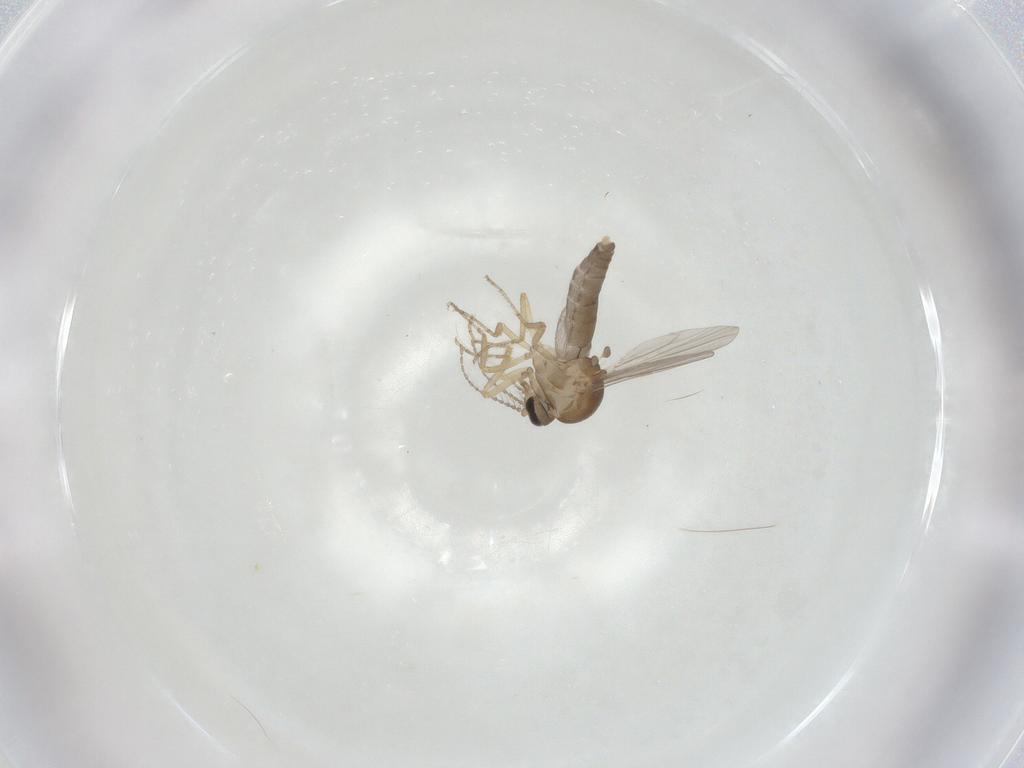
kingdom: Animalia
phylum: Arthropoda
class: Insecta
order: Diptera
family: Ceratopogonidae
